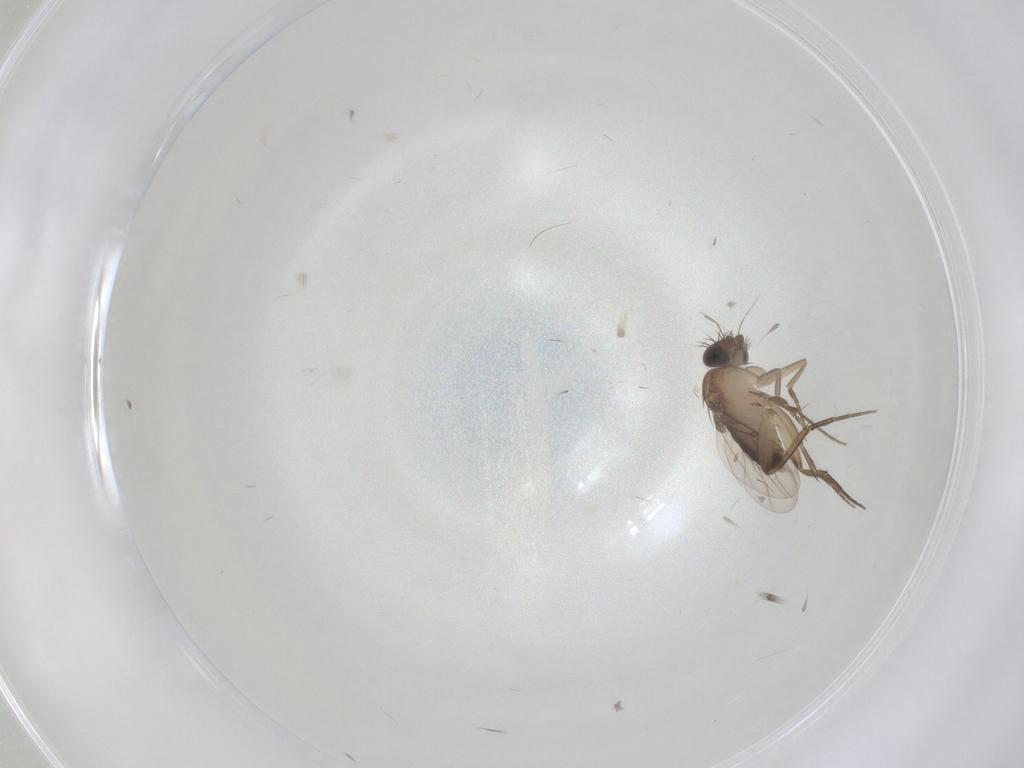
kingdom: Animalia
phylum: Arthropoda
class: Insecta
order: Diptera
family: Phoridae
